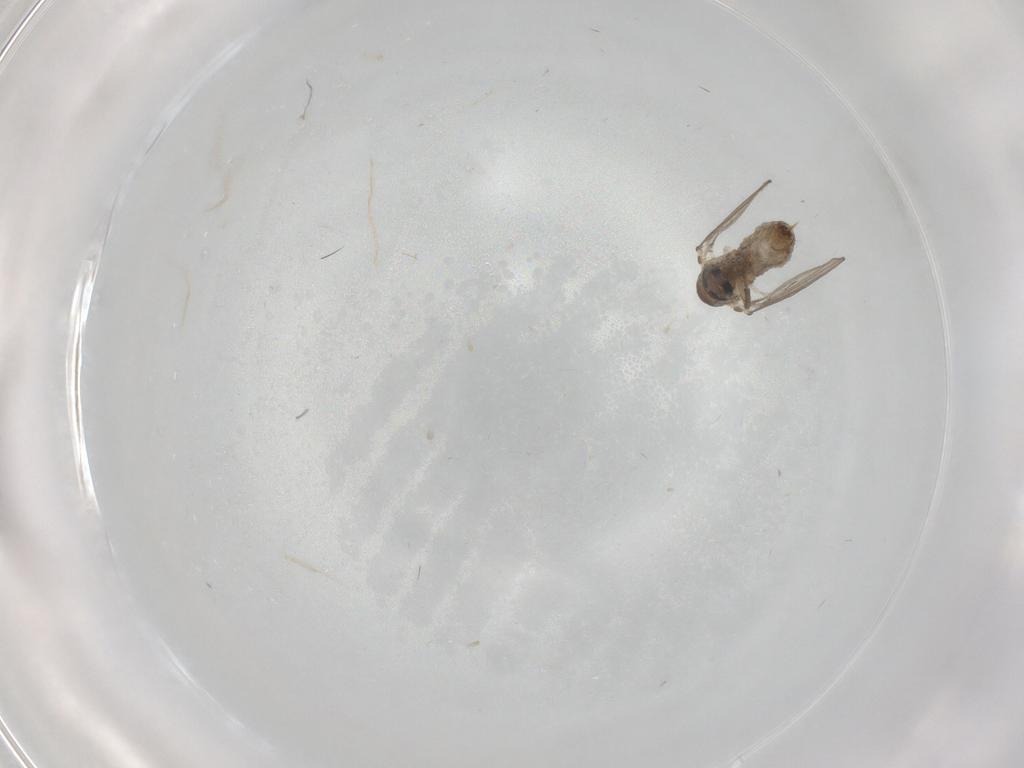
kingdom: Animalia
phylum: Arthropoda
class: Insecta
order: Diptera
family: Psychodidae
